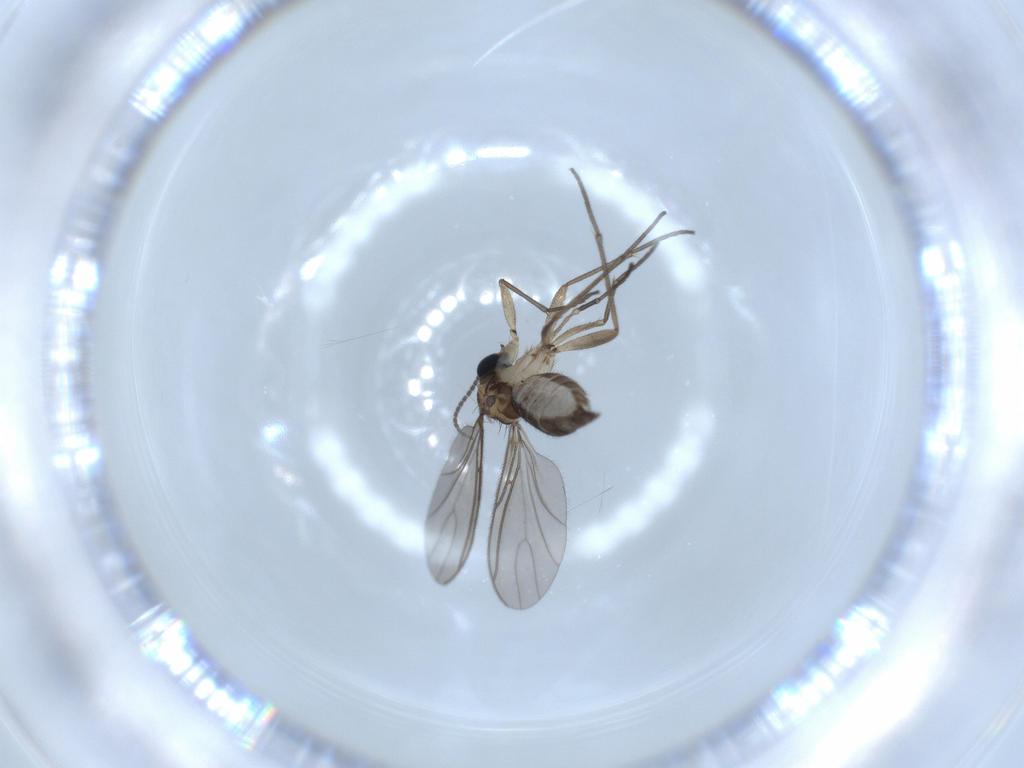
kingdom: Animalia
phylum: Arthropoda
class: Insecta
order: Diptera
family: Sciaridae
